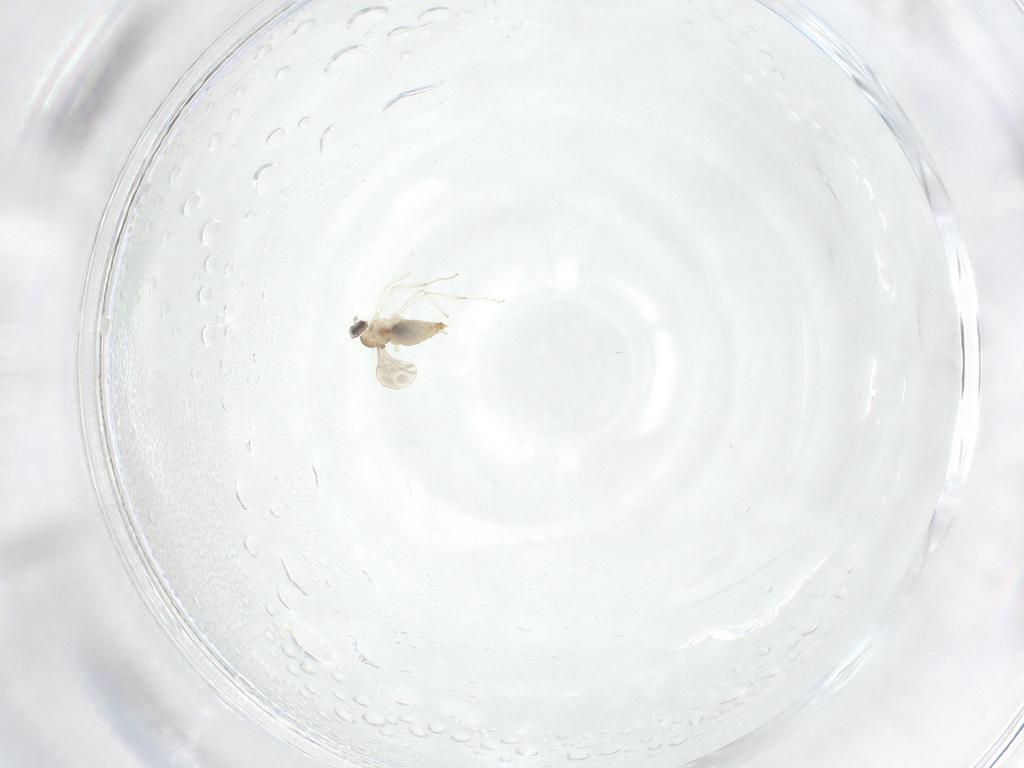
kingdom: Animalia
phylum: Arthropoda
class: Insecta
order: Diptera
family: Cecidomyiidae
